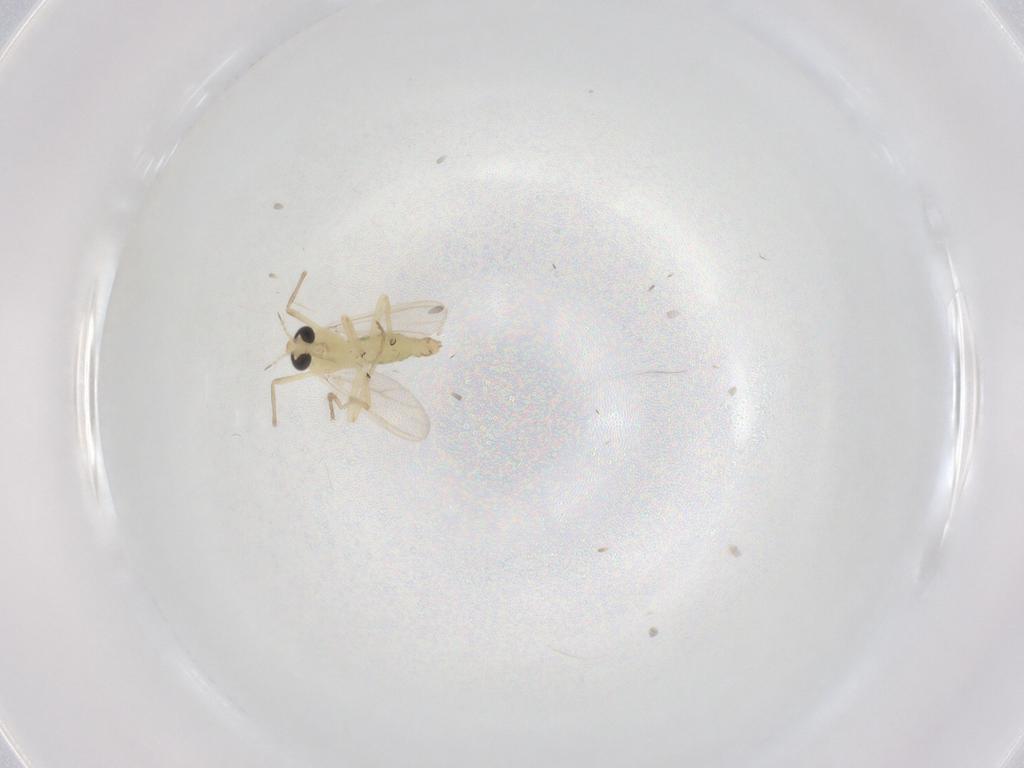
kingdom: Animalia
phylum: Arthropoda
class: Insecta
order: Diptera
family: Chironomidae
